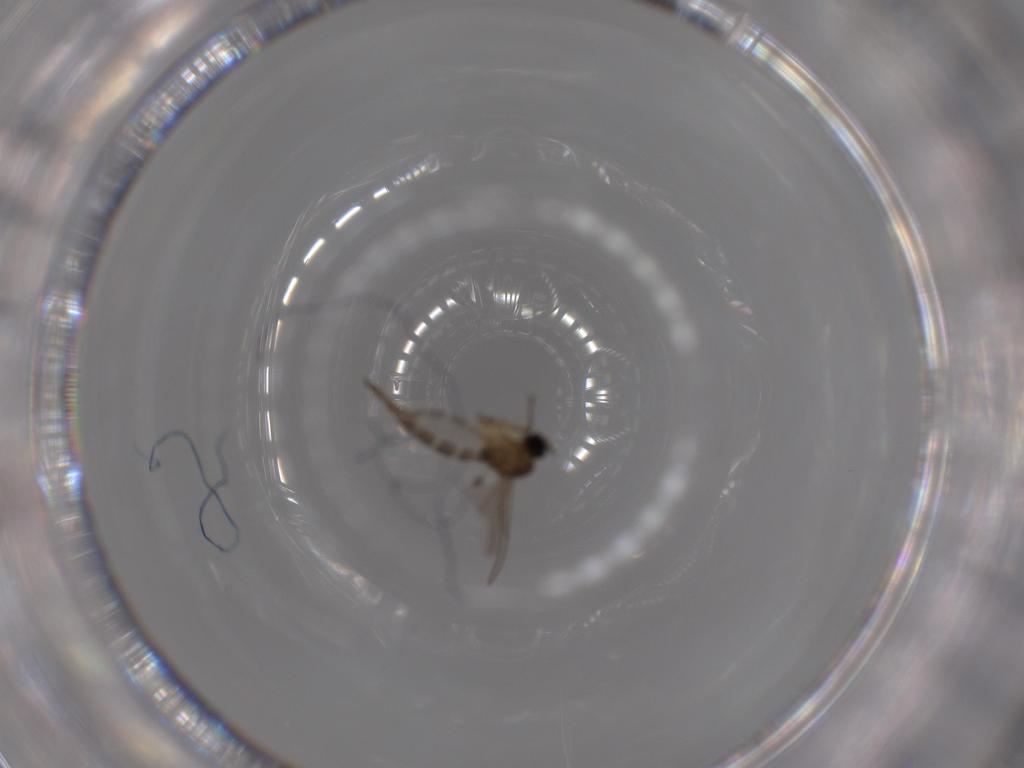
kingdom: Animalia
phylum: Arthropoda
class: Insecta
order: Diptera
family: Sciaridae
